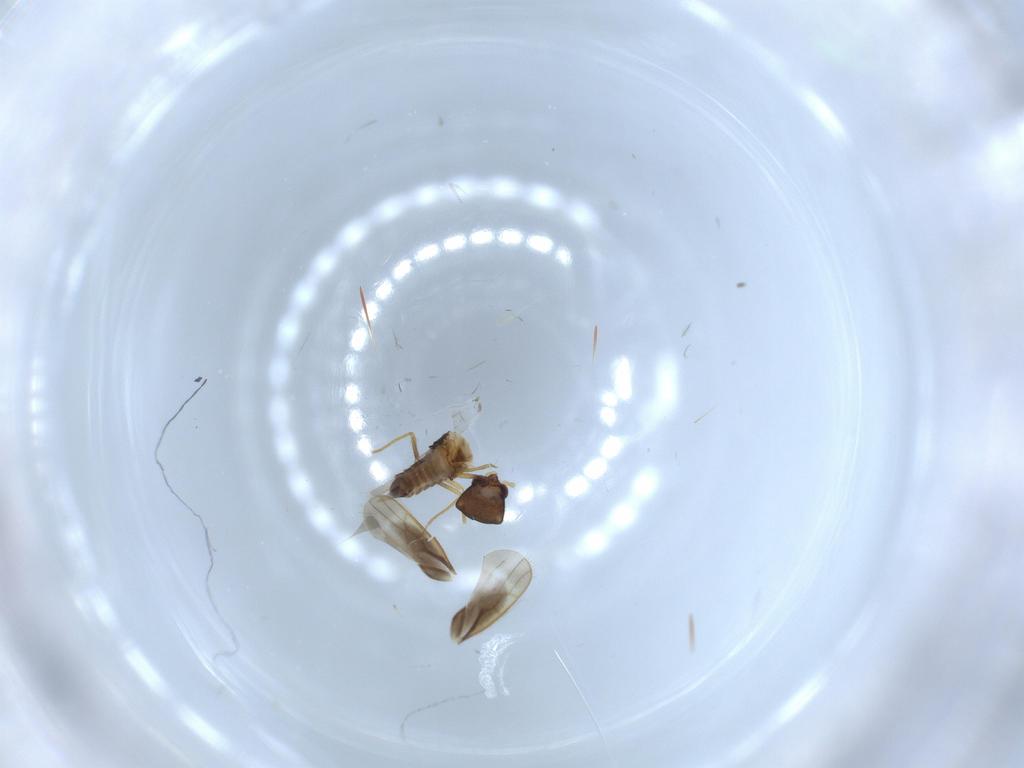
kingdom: Animalia
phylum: Arthropoda
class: Insecta
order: Hemiptera
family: Schizopteridae
